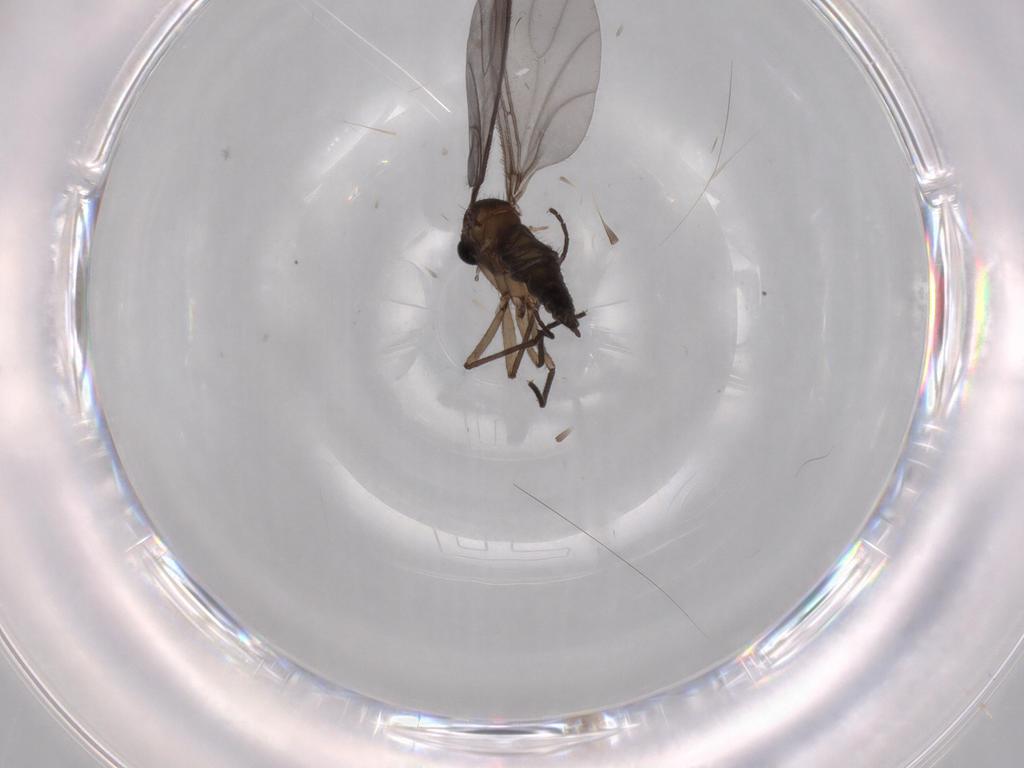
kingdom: Animalia
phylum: Arthropoda
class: Insecta
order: Diptera
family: Sciaridae
